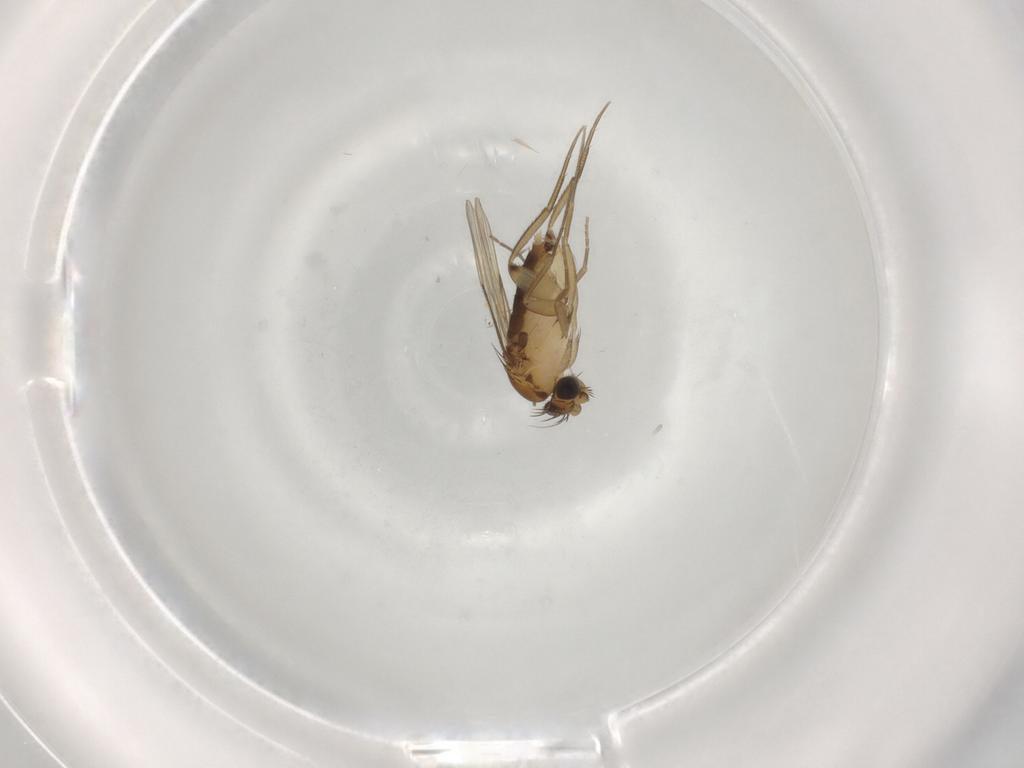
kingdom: Animalia
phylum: Arthropoda
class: Insecta
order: Diptera
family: Phoridae
